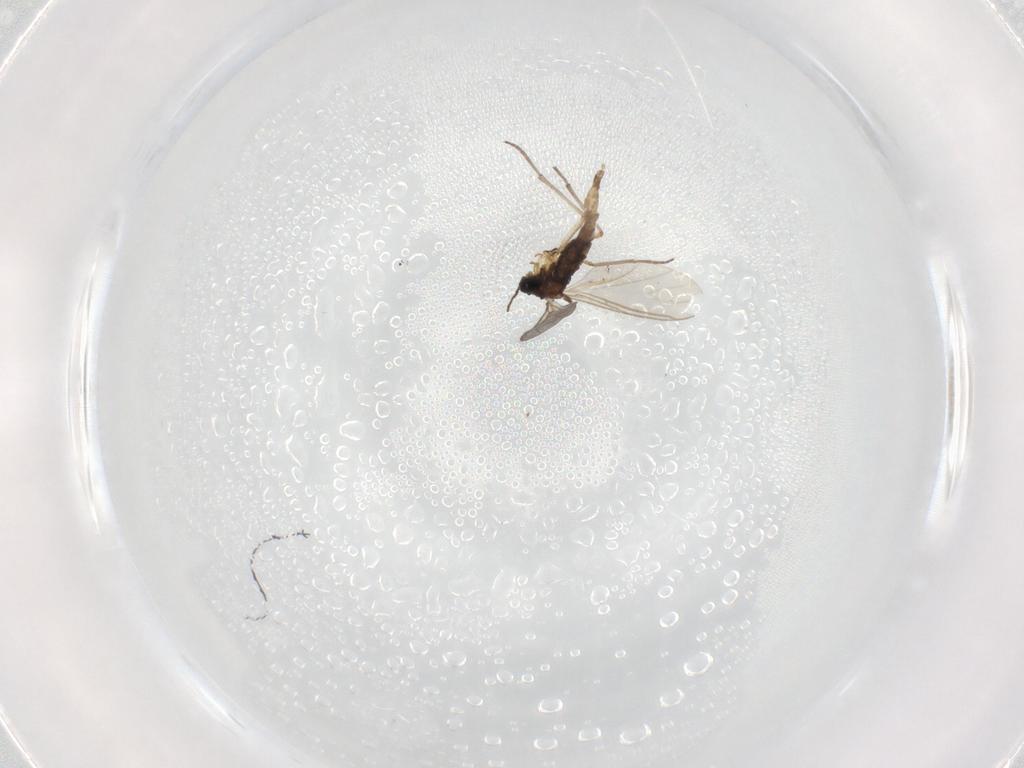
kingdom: Animalia
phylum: Arthropoda
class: Insecta
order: Diptera
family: Sciaridae
